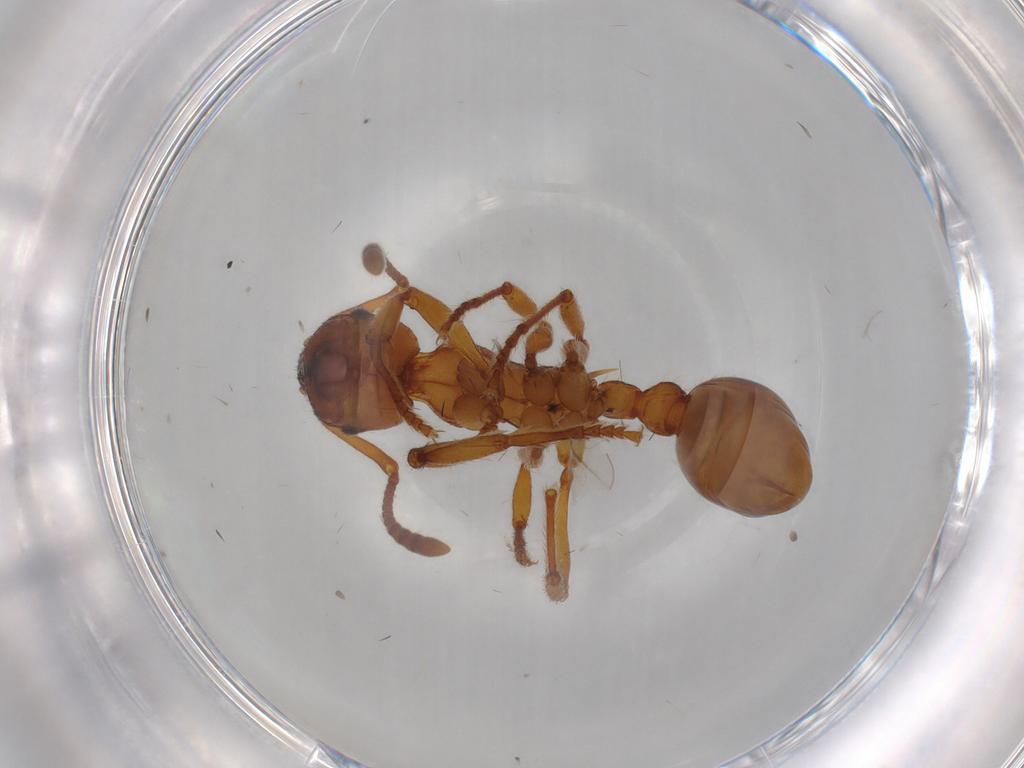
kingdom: Animalia
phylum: Arthropoda
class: Insecta
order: Hymenoptera
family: Formicidae
